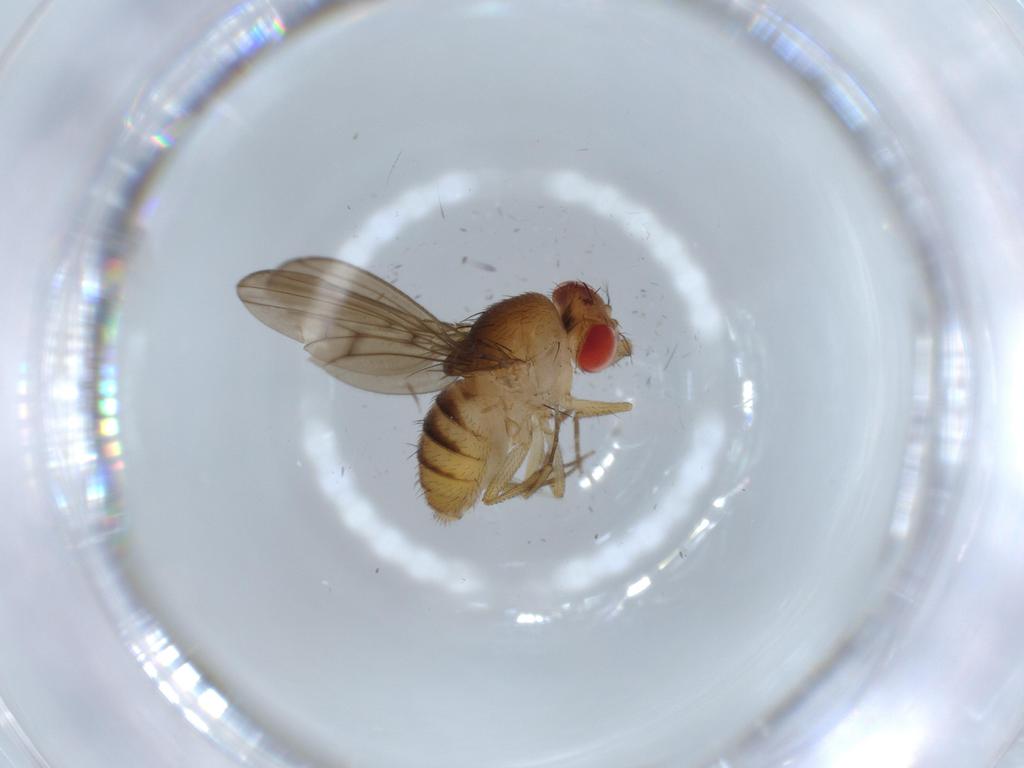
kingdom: Animalia
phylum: Arthropoda
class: Insecta
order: Diptera
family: Drosophilidae
